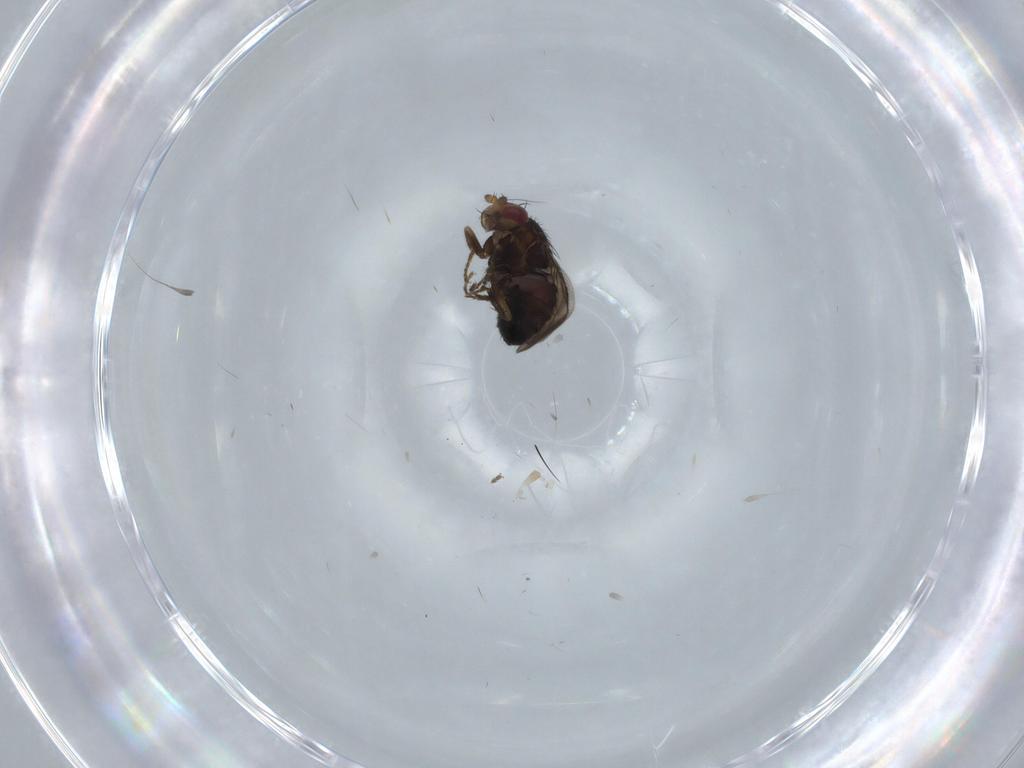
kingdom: Animalia
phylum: Arthropoda
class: Insecta
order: Diptera
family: Sphaeroceridae
